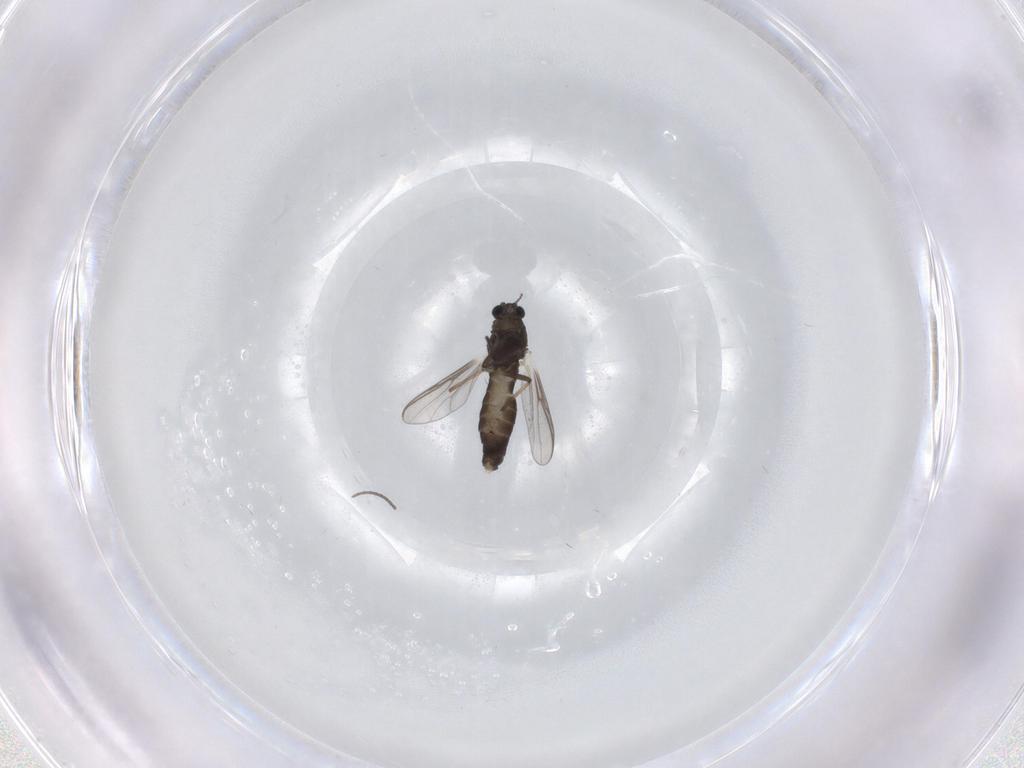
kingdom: Animalia
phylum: Arthropoda
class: Insecta
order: Diptera
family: Chironomidae
